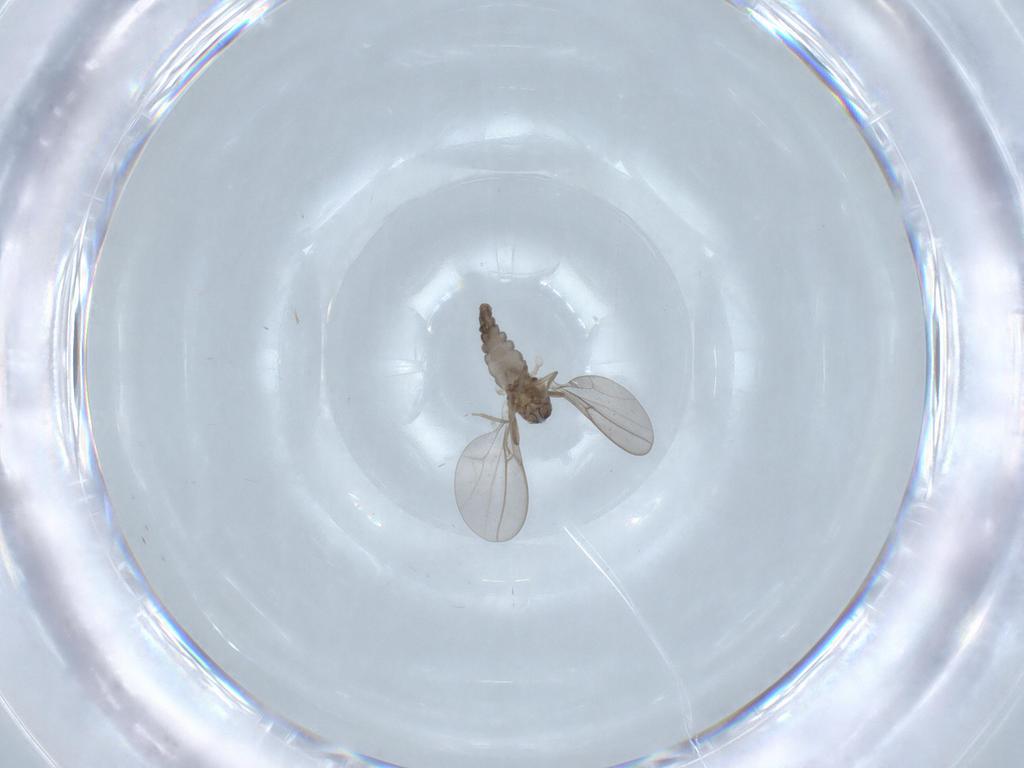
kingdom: Animalia
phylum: Arthropoda
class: Insecta
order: Diptera
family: Limoniidae
